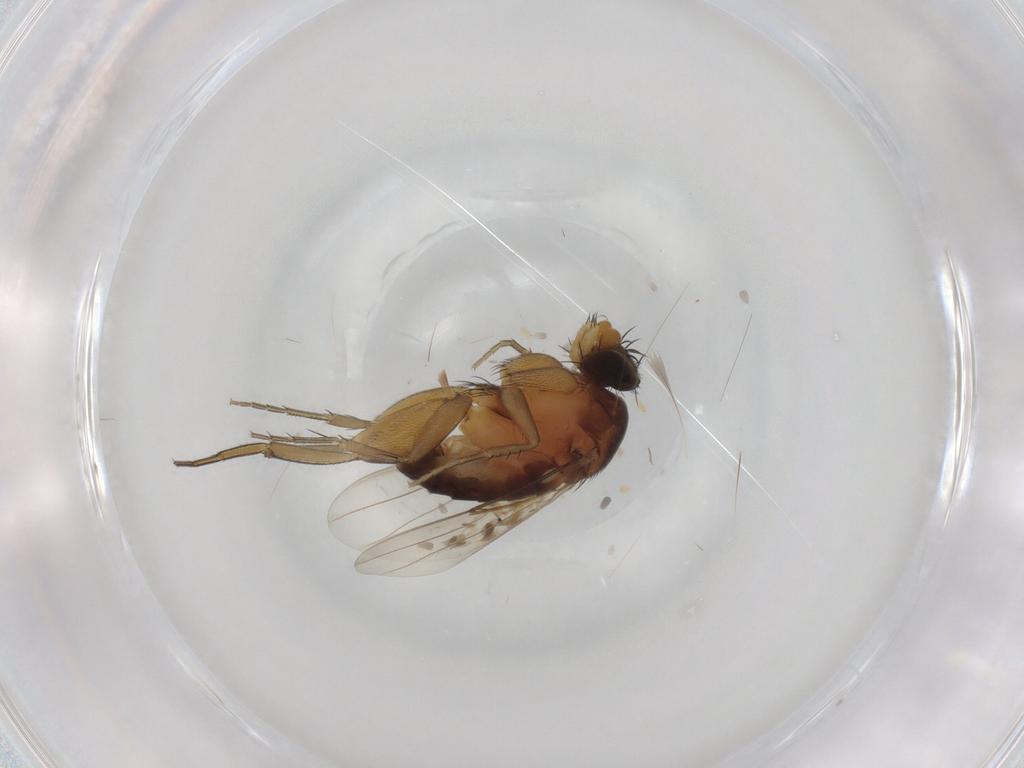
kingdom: Animalia
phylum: Arthropoda
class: Insecta
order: Diptera
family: Phoridae
